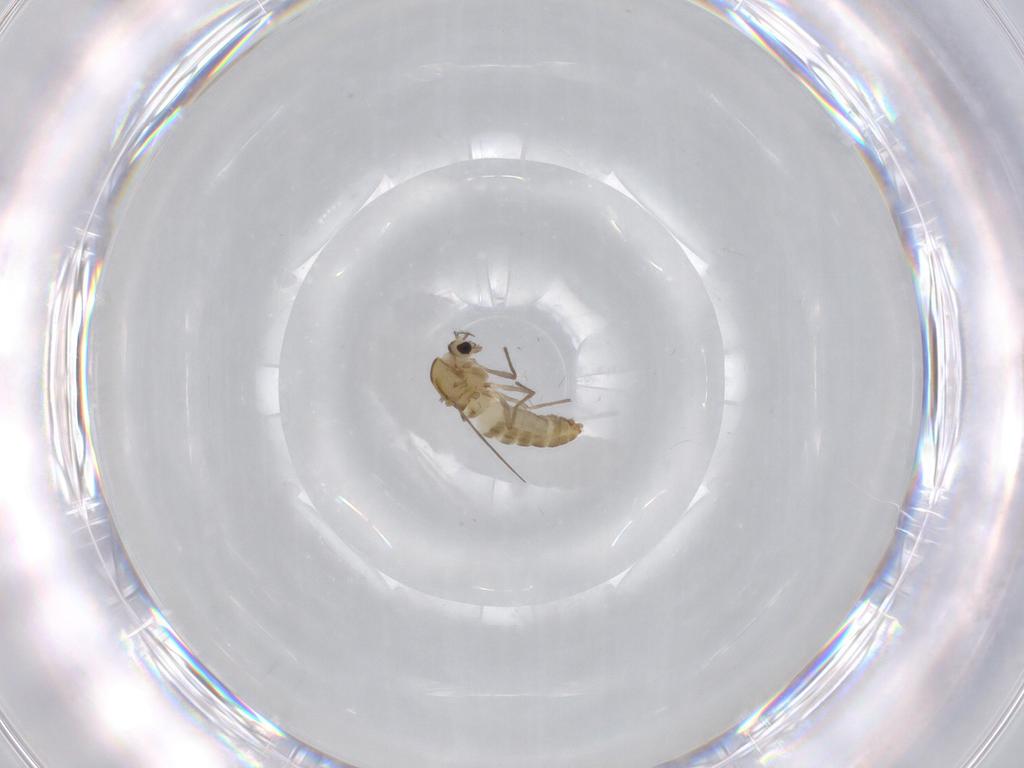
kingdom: Animalia
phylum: Arthropoda
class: Insecta
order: Diptera
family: Chironomidae
